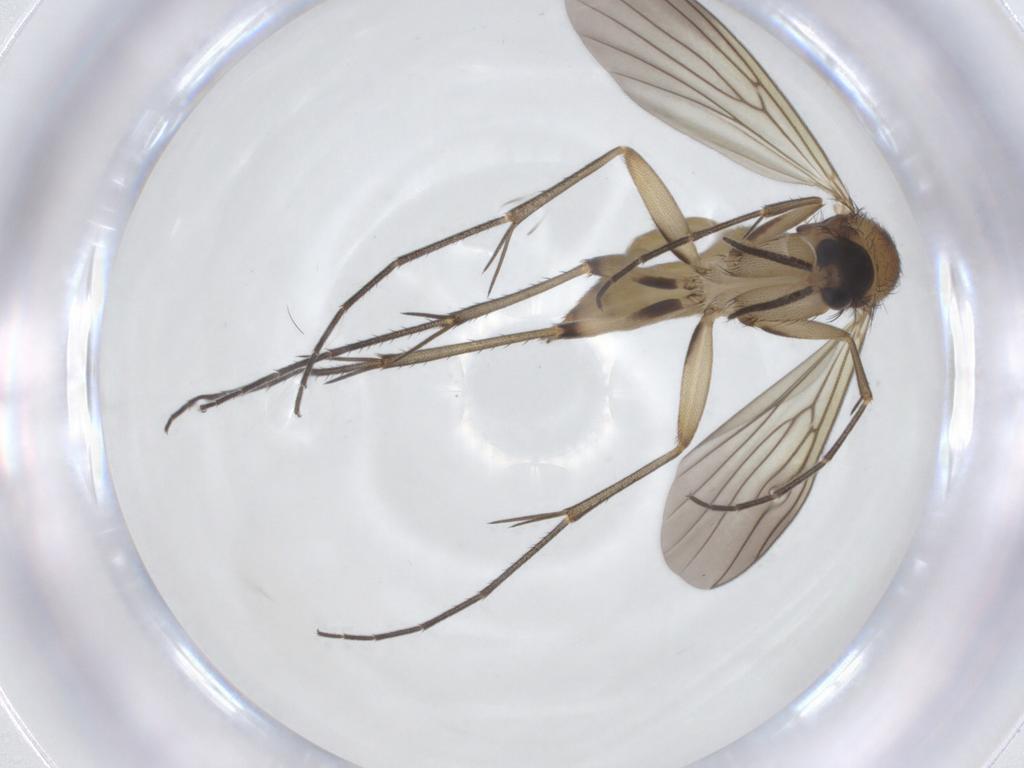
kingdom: Animalia
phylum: Arthropoda
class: Insecta
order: Diptera
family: Mycetophilidae
